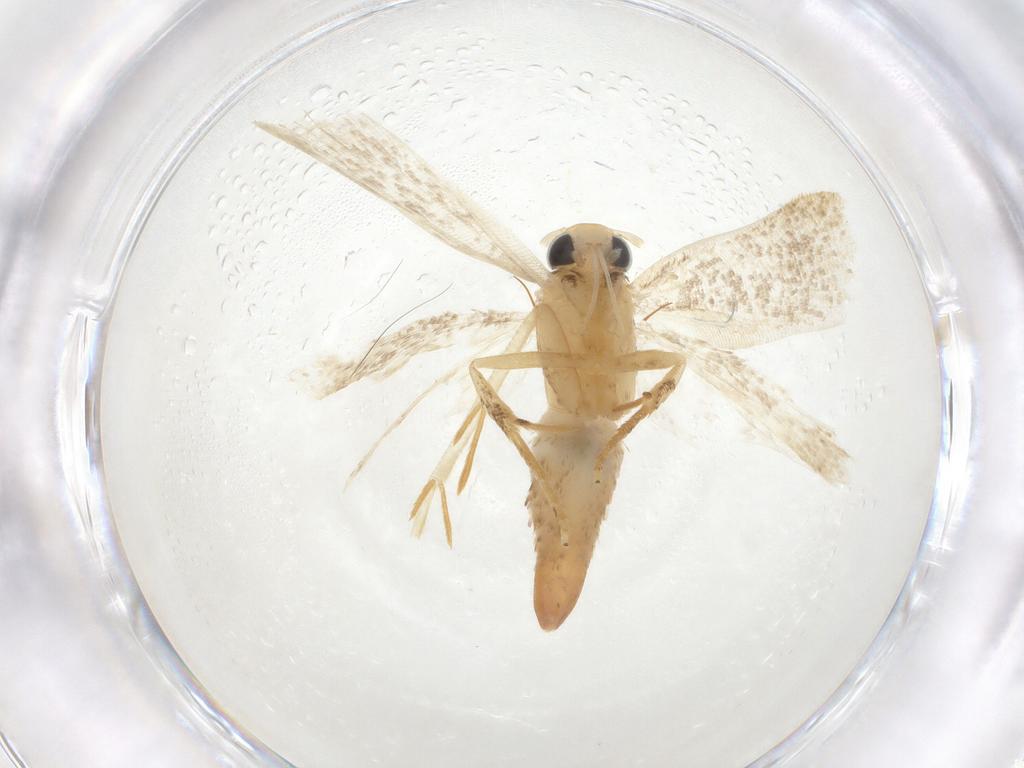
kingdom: Animalia
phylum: Arthropoda
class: Insecta
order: Lepidoptera
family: Gelechiidae
